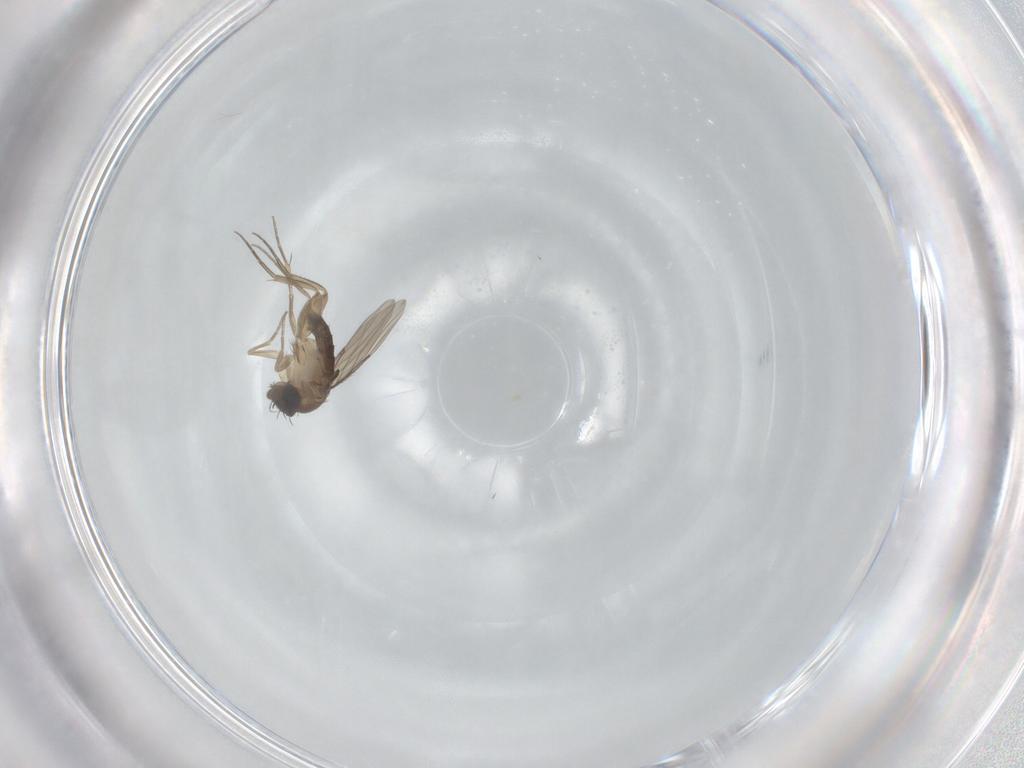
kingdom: Animalia
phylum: Arthropoda
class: Insecta
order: Diptera
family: Phoridae
